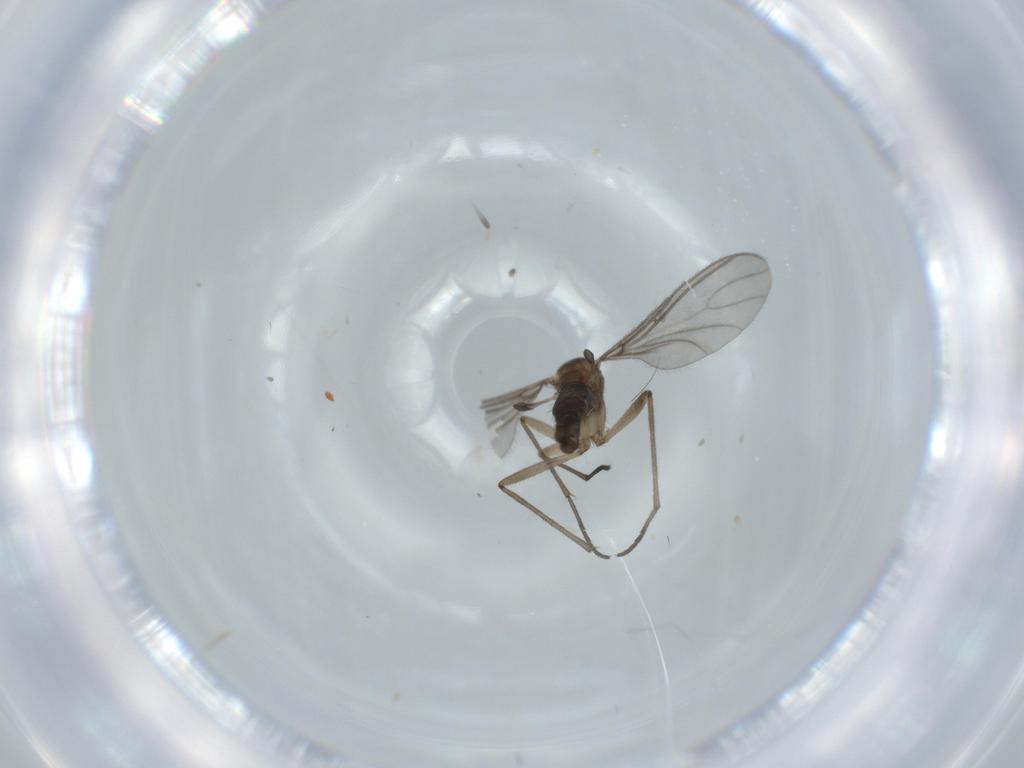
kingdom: Animalia
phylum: Arthropoda
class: Insecta
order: Diptera
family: Sciaridae
